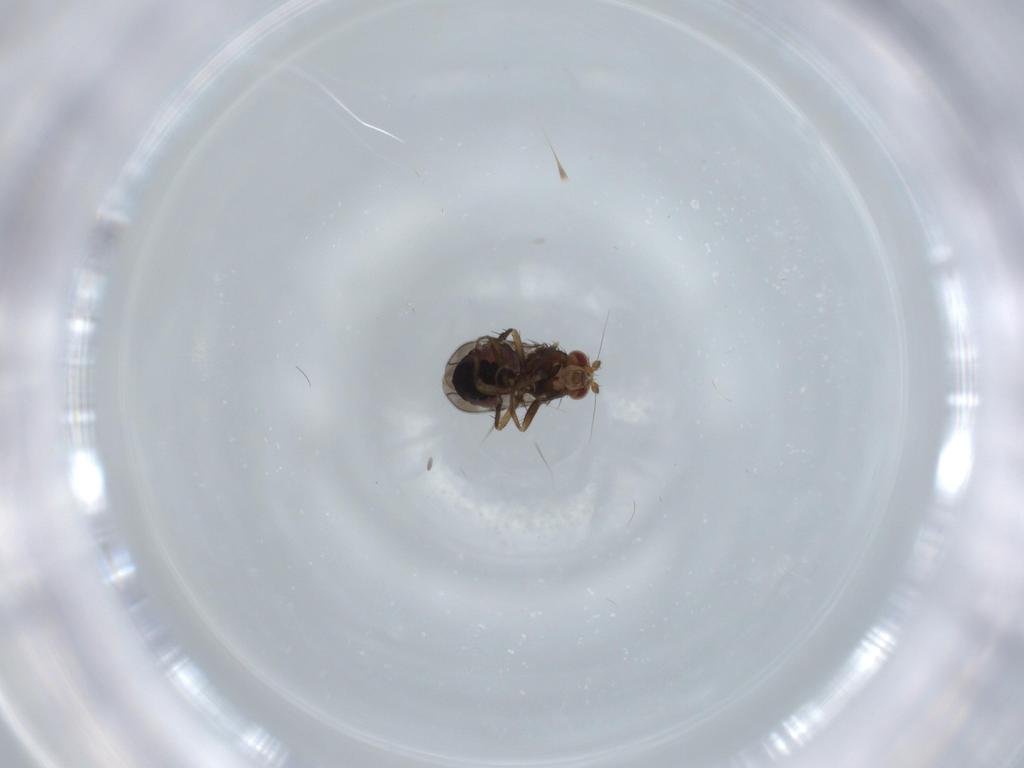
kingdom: Animalia
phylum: Arthropoda
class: Insecta
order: Diptera
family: Sphaeroceridae
